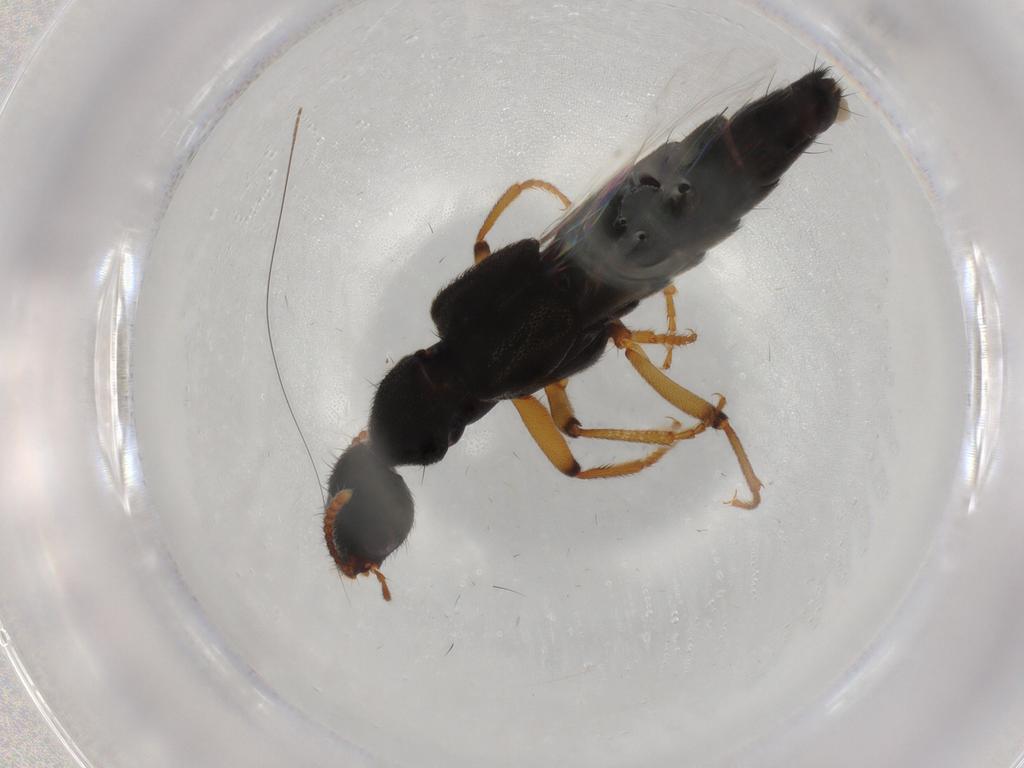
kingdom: Animalia
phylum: Arthropoda
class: Insecta
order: Coleoptera
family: Staphylinidae
